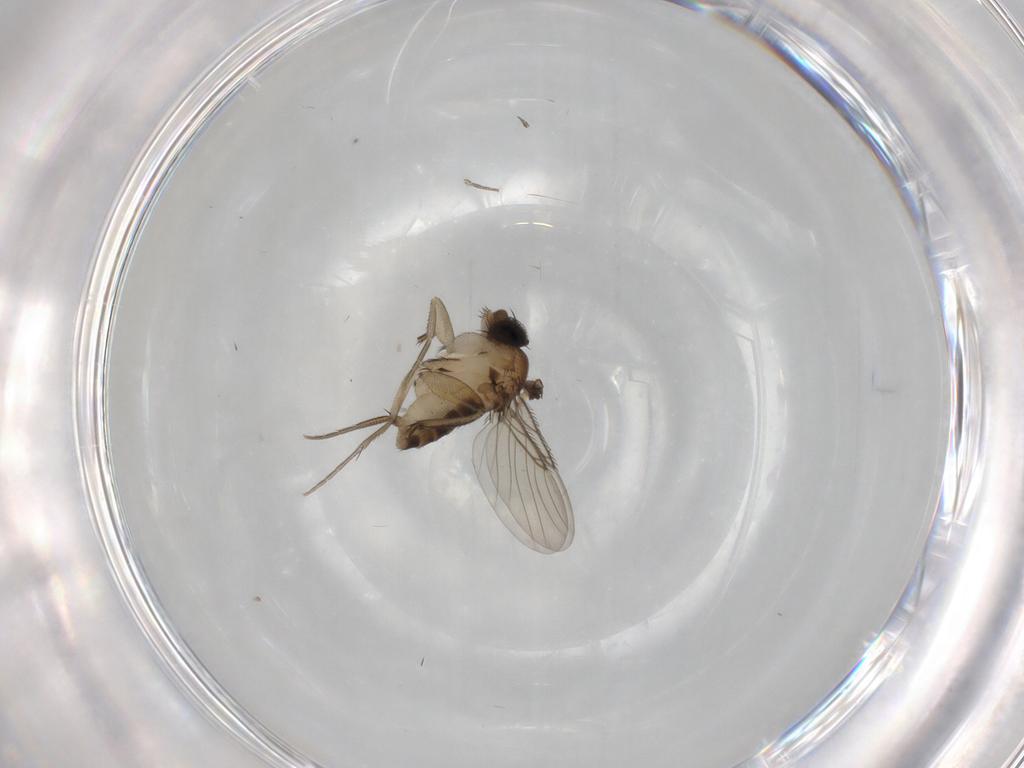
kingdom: Animalia
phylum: Arthropoda
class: Insecta
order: Diptera
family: Phoridae
